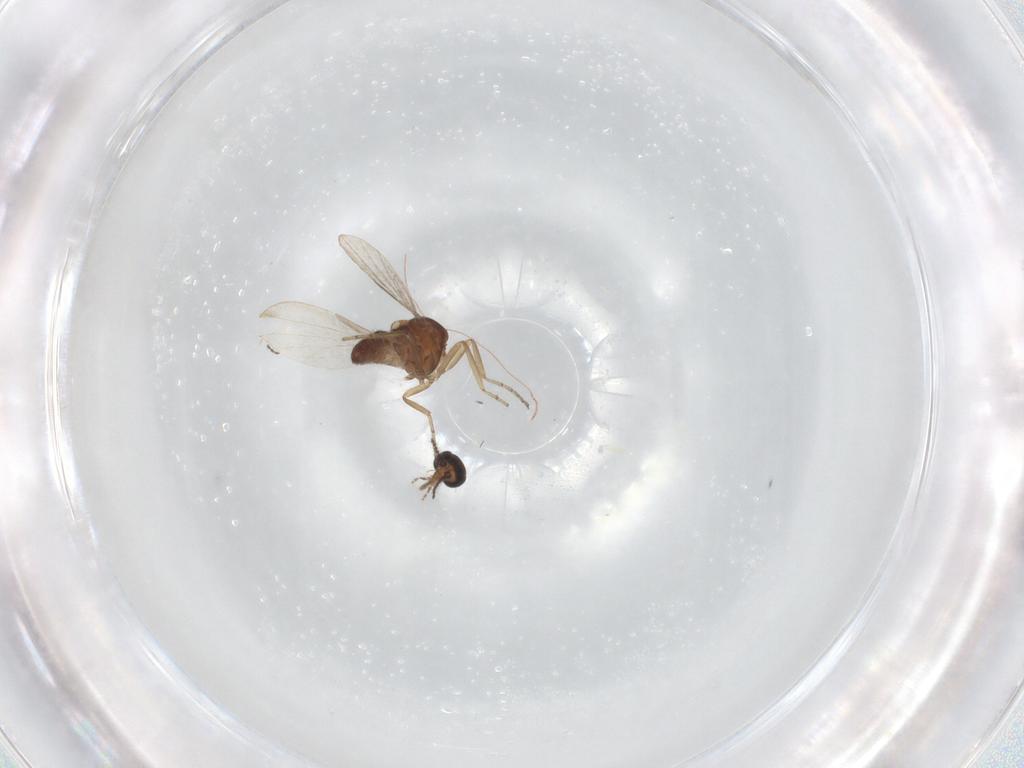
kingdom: Animalia
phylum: Arthropoda
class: Insecta
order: Diptera
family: Ceratopogonidae
